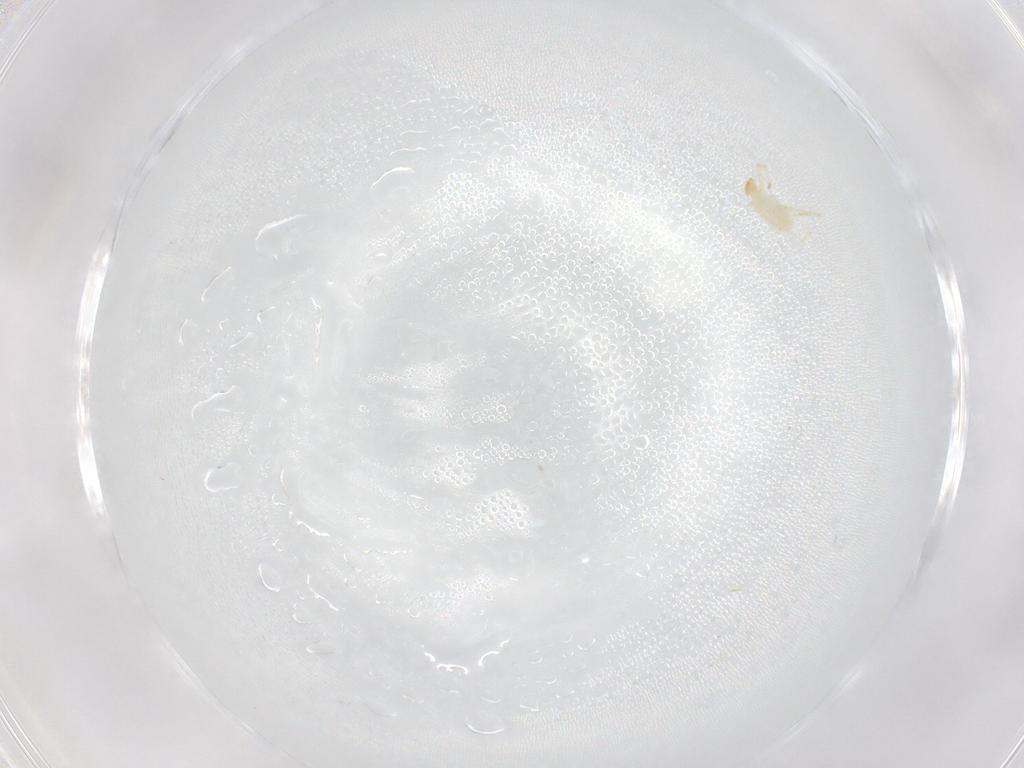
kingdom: Animalia
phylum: Arthropoda
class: Arachnida
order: Trombidiformes
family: Erythraeidae
